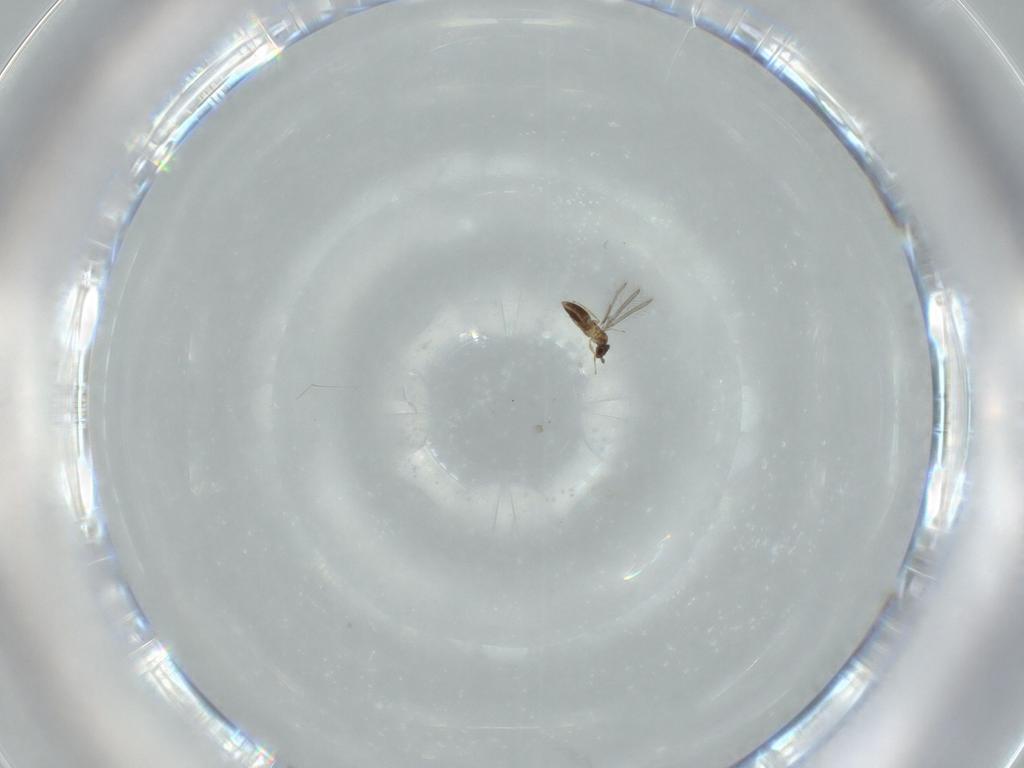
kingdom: Animalia
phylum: Arthropoda
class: Insecta
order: Hymenoptera
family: Mymaridae
